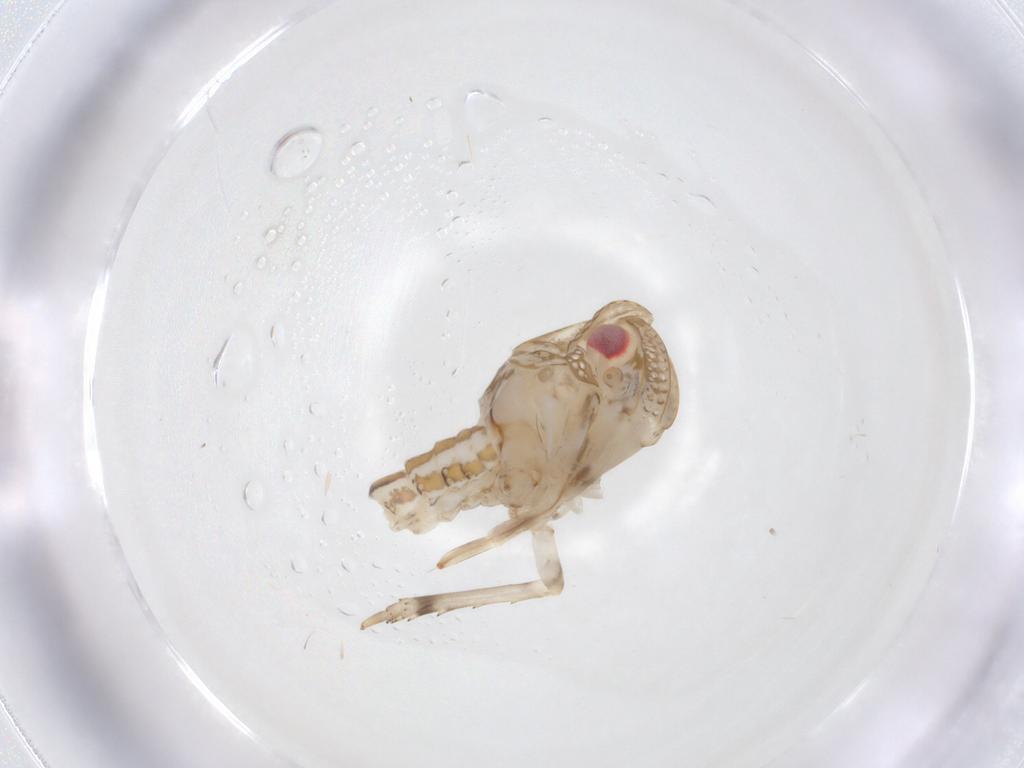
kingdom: Animalia
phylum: Arthropoda
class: Insecta
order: Hemiptera
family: Fulgoroidea_incertae_sedis
